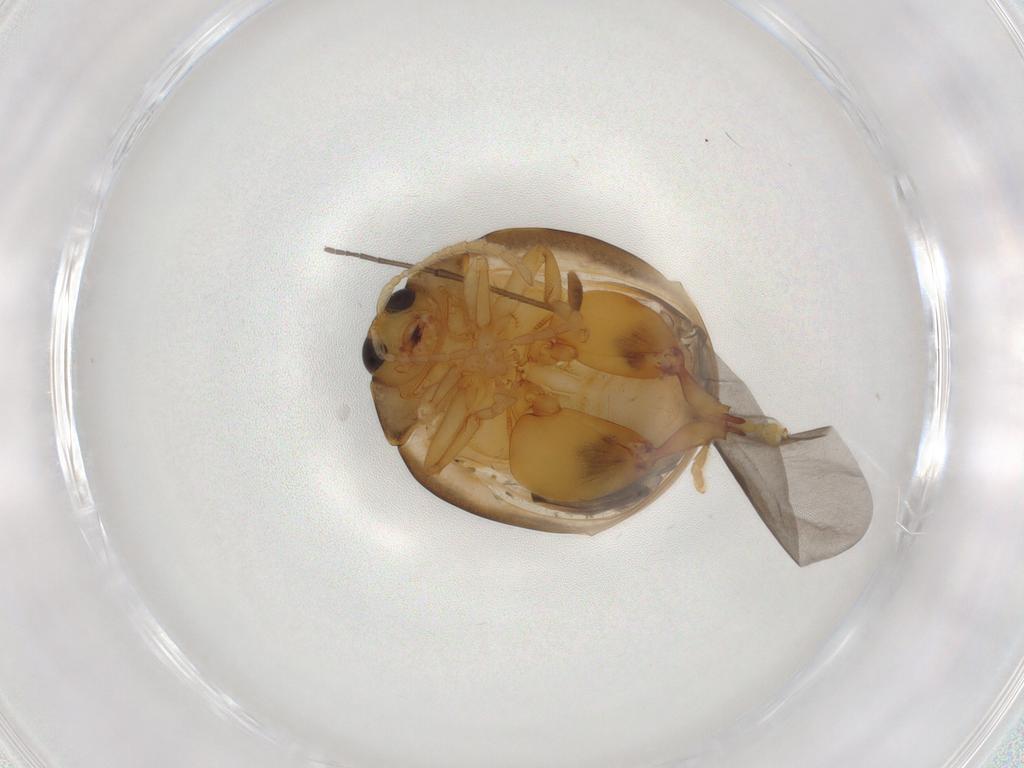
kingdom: Animalia
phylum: Arthropoda
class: Insecta
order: Coleoptera
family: Chrysomelidae
